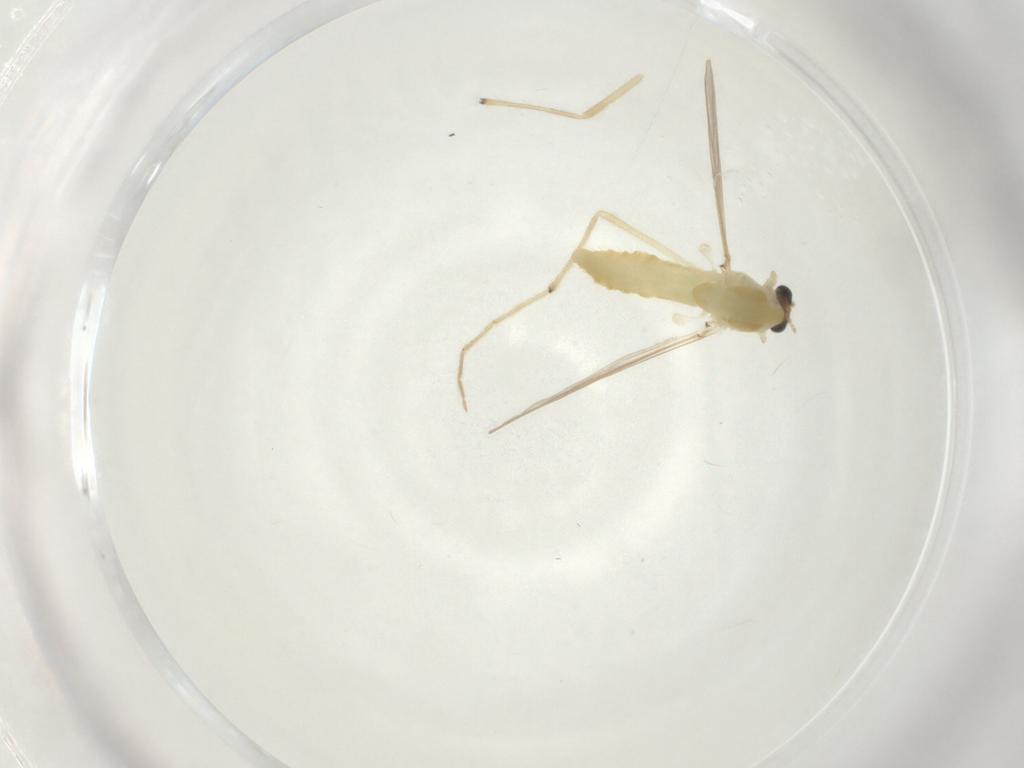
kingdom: Animalia
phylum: Arthropoda
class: Insecta
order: Diptera
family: Chironomidae
